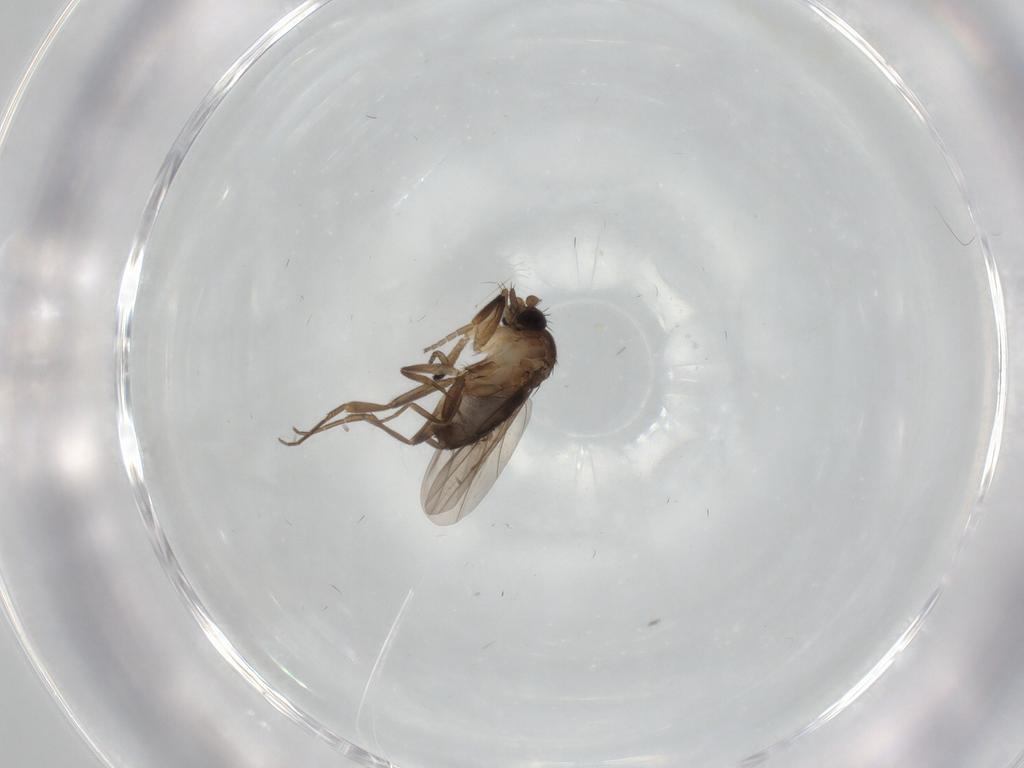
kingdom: Animalia
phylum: Arthropoda
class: Insecta
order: Diptera
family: Phoridae
